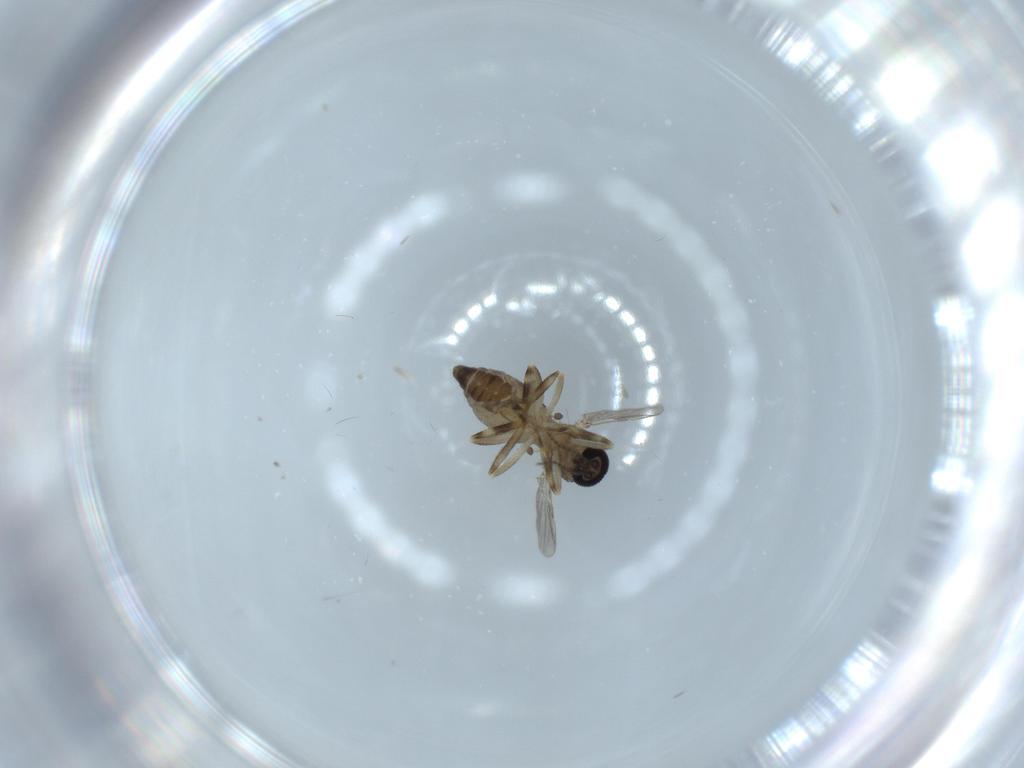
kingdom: Animalia
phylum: Arthropoda
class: Insecta
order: Diptera
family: Ceratopogonidae
